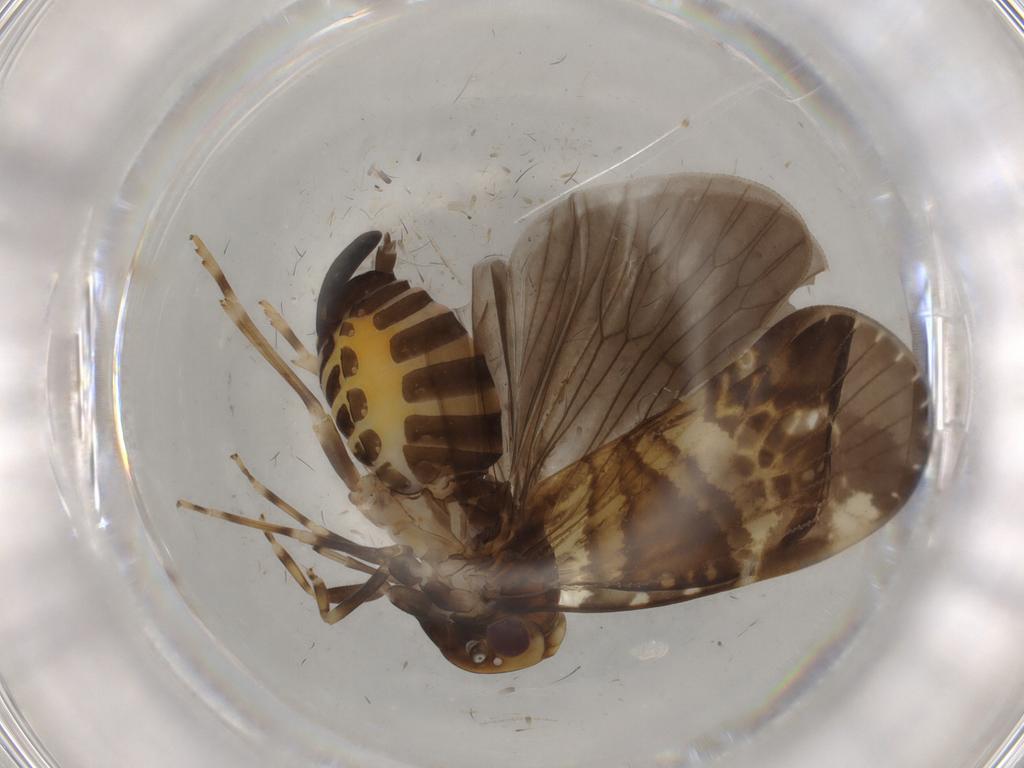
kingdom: Animalia
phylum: Arthropoda
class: Insecta
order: Hemiptera
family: Cixiidae
